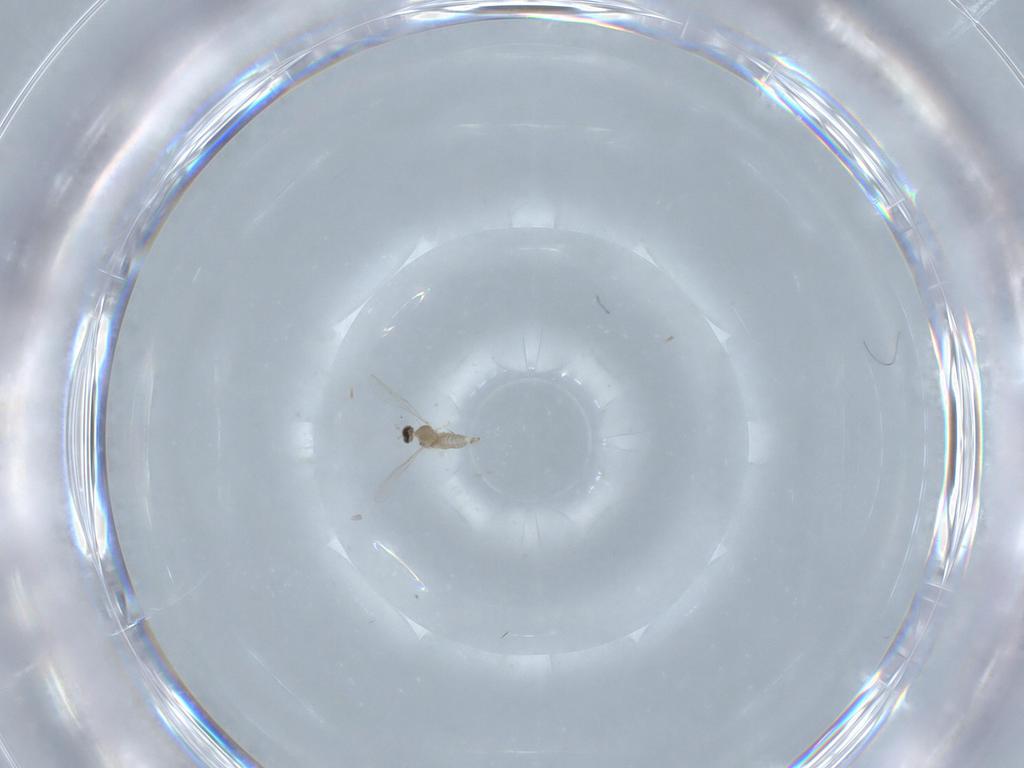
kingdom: Animalia
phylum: Arthropoda
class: Insecta
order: Diptera
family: Cecidomyiidae
